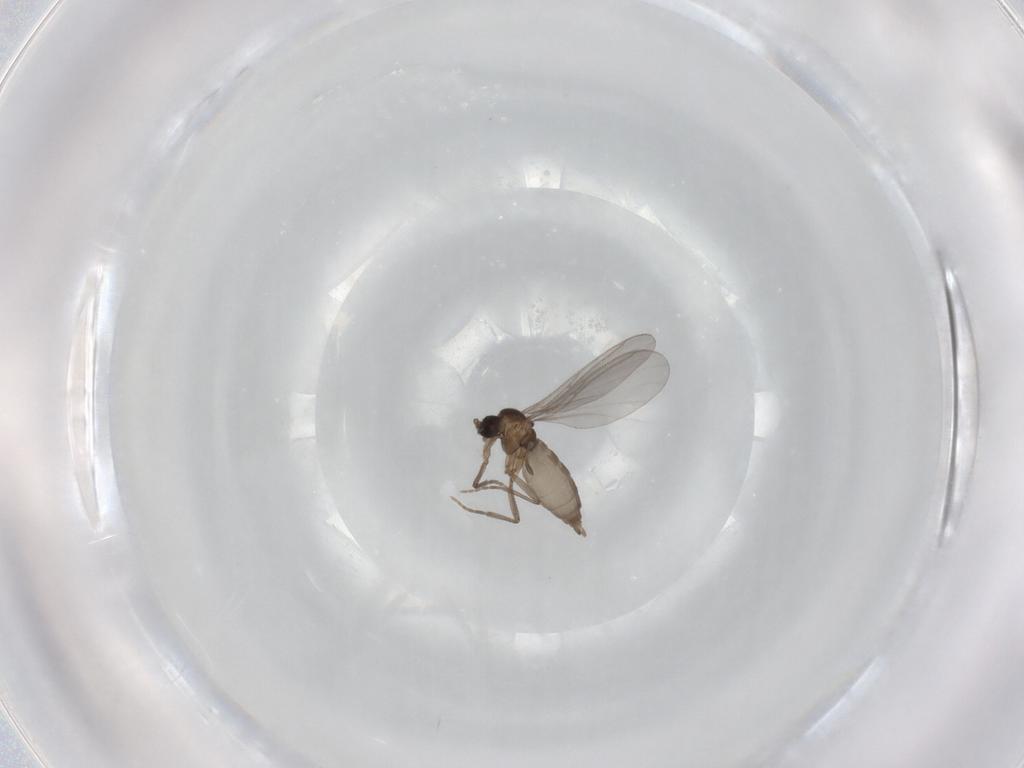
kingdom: Animalia
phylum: Arthropoda
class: Insecta
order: Diptera
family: Sciaridae
